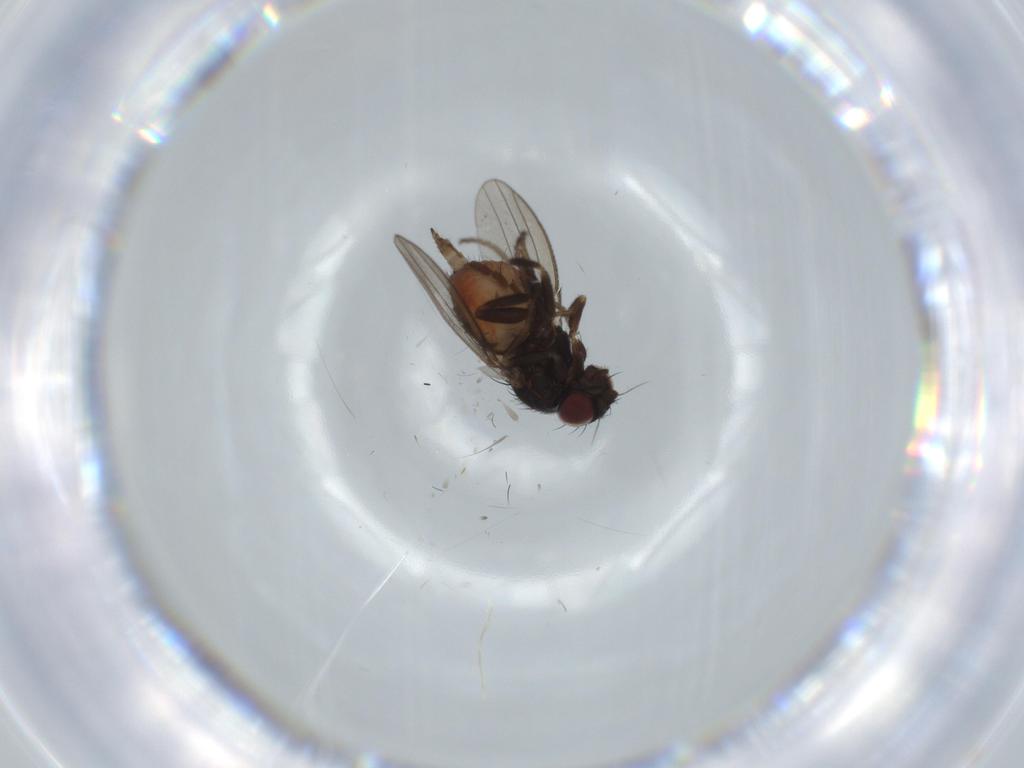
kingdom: Animalia
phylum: Arthropoda
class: Insecta
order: Diptera
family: Milichiidae
